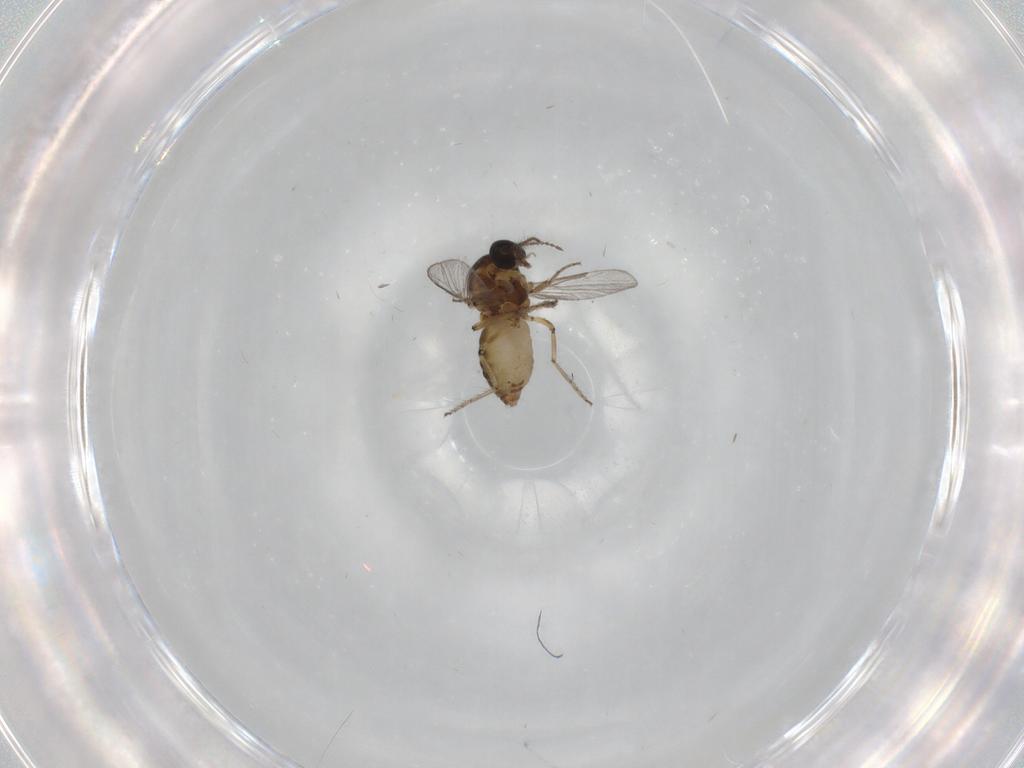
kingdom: Animalia
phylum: Arthropoda
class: Insecta
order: Diptera
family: Ceratopogonidae
